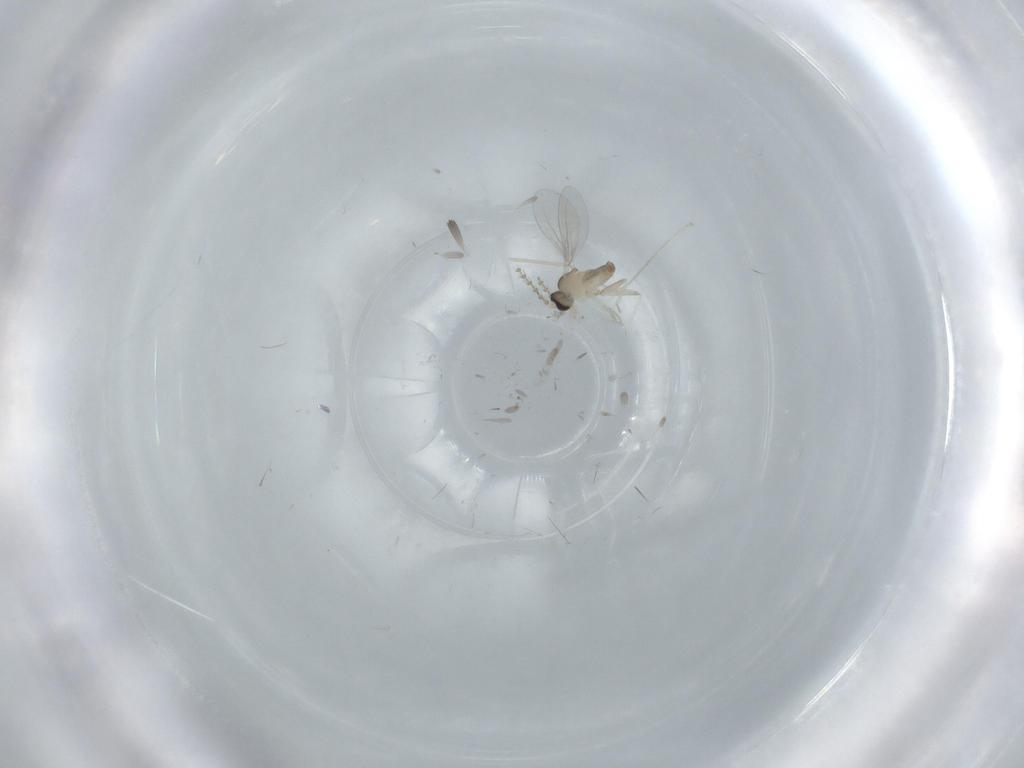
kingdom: Animalia
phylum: Arthropoda
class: Insecta
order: Diptera
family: Cecidomyiidae
